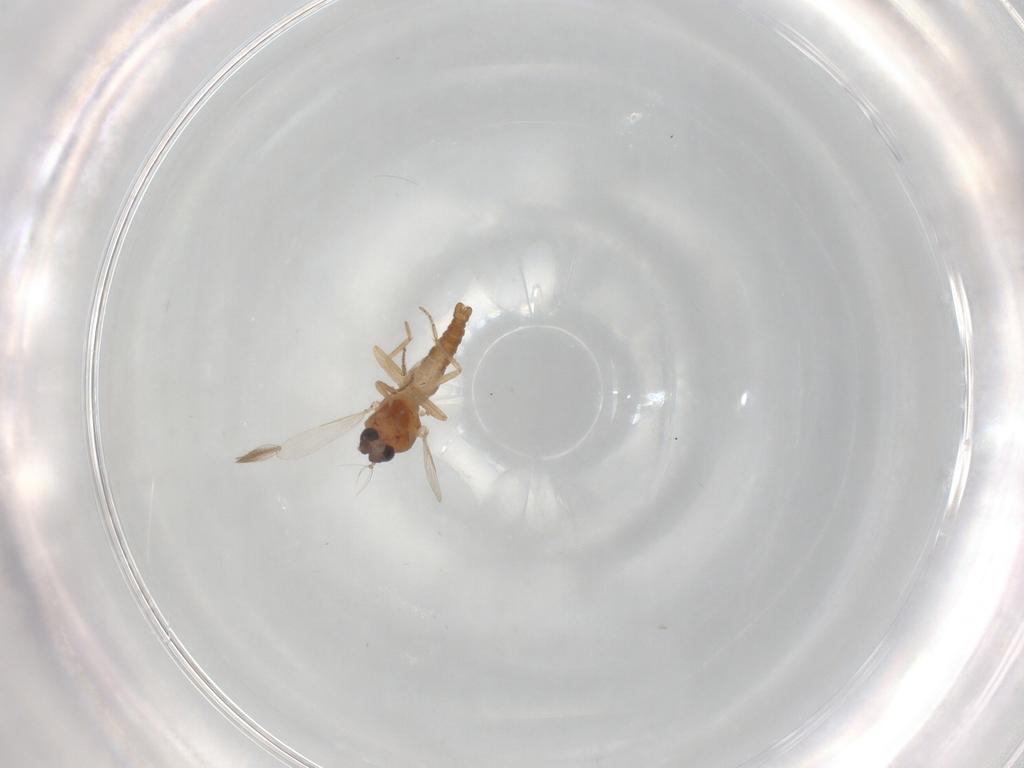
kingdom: Animalia
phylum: Arthropoda
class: Insecta
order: Diptera
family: Ceratopogonidae
